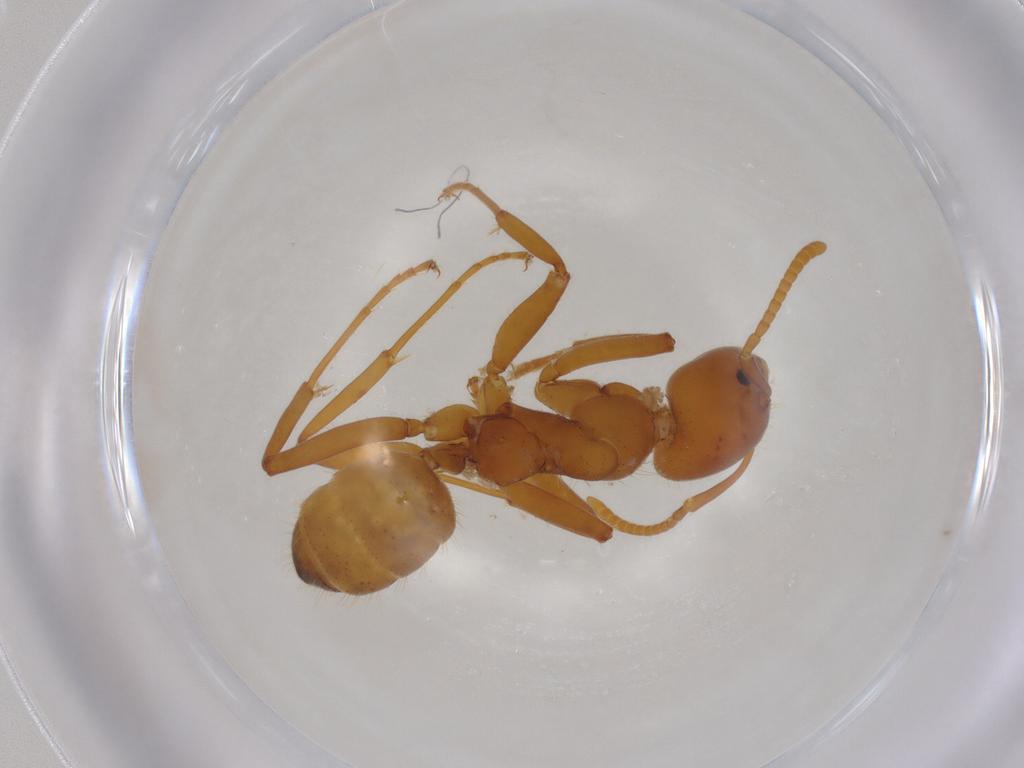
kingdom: Animalia
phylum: Arthropoda
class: Insecta
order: Hymenoptera
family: Formicidae
